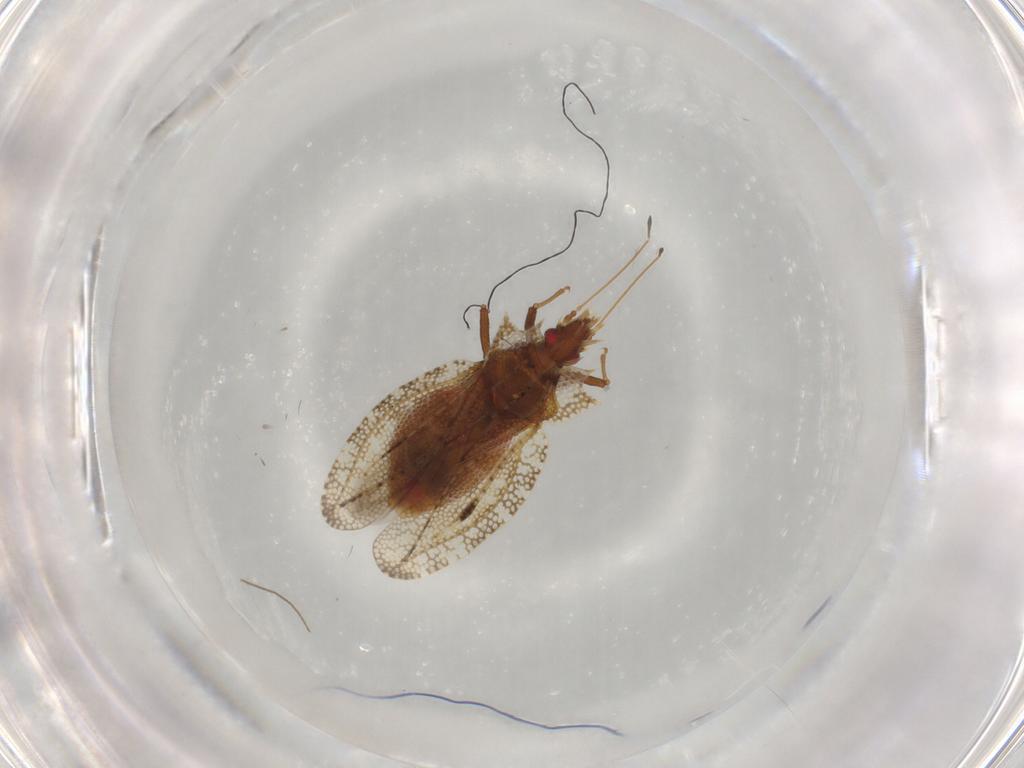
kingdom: Animalia
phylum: Arthropoda
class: Insecta
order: Hemiptera
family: Tingidae
